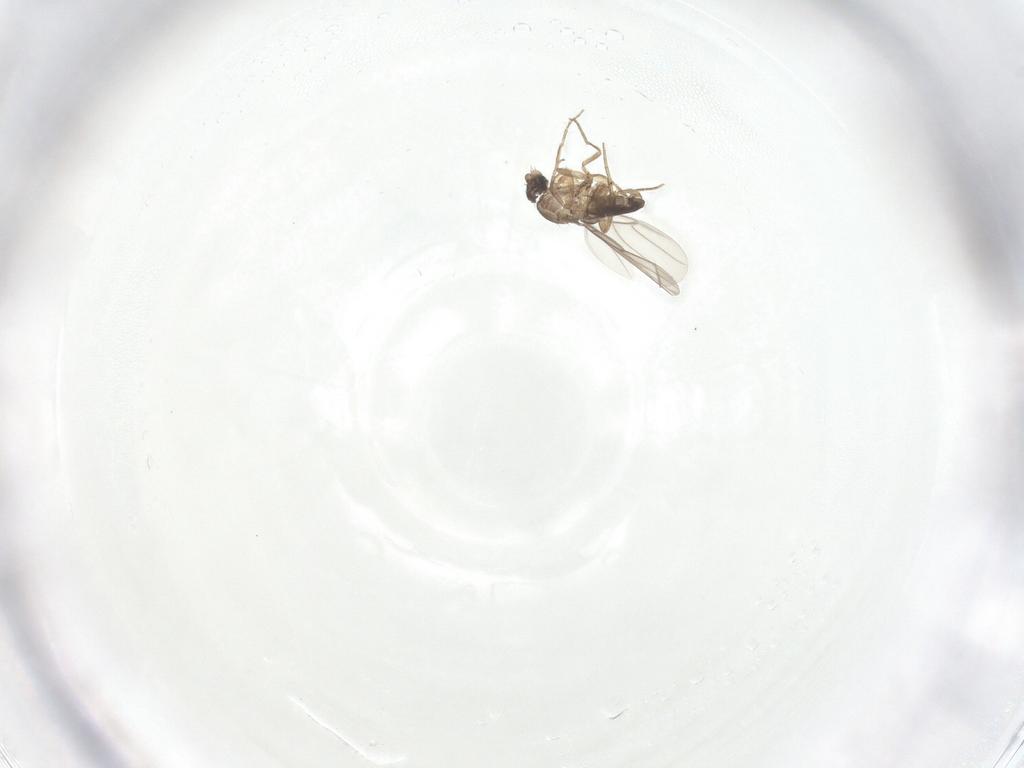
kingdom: Animalia
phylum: Arthropoda
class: Insecta
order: Diptera
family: Phoridae
